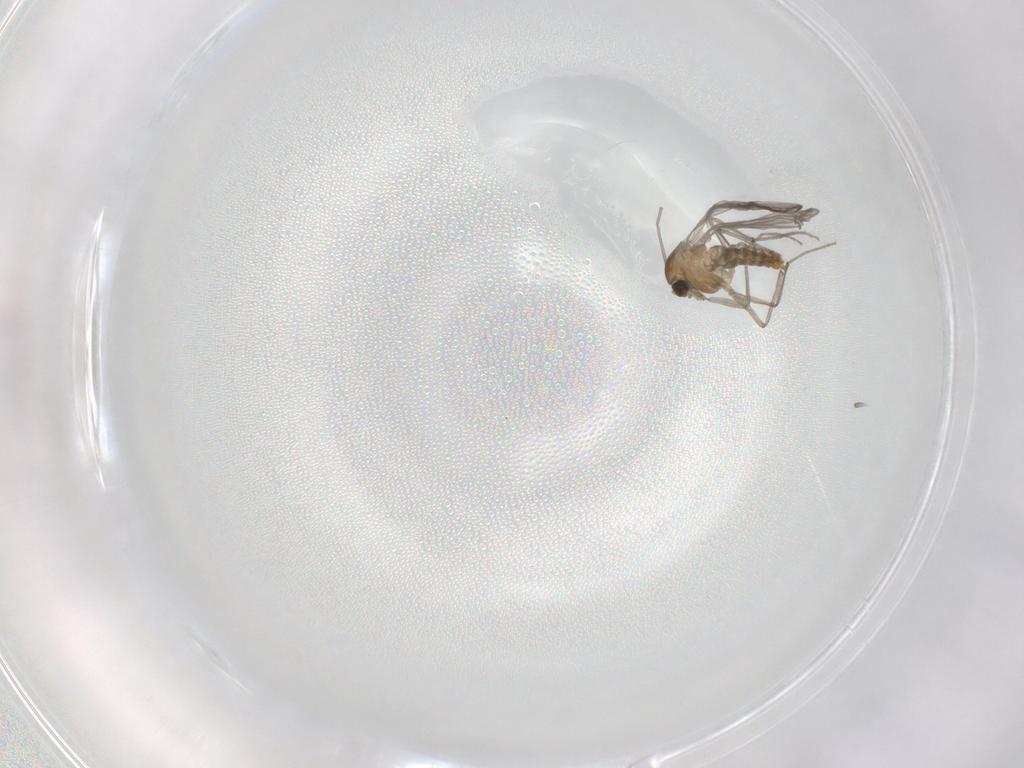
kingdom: Animalia
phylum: Arthropoda
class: Insecta
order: Diptera
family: Chironomidae
